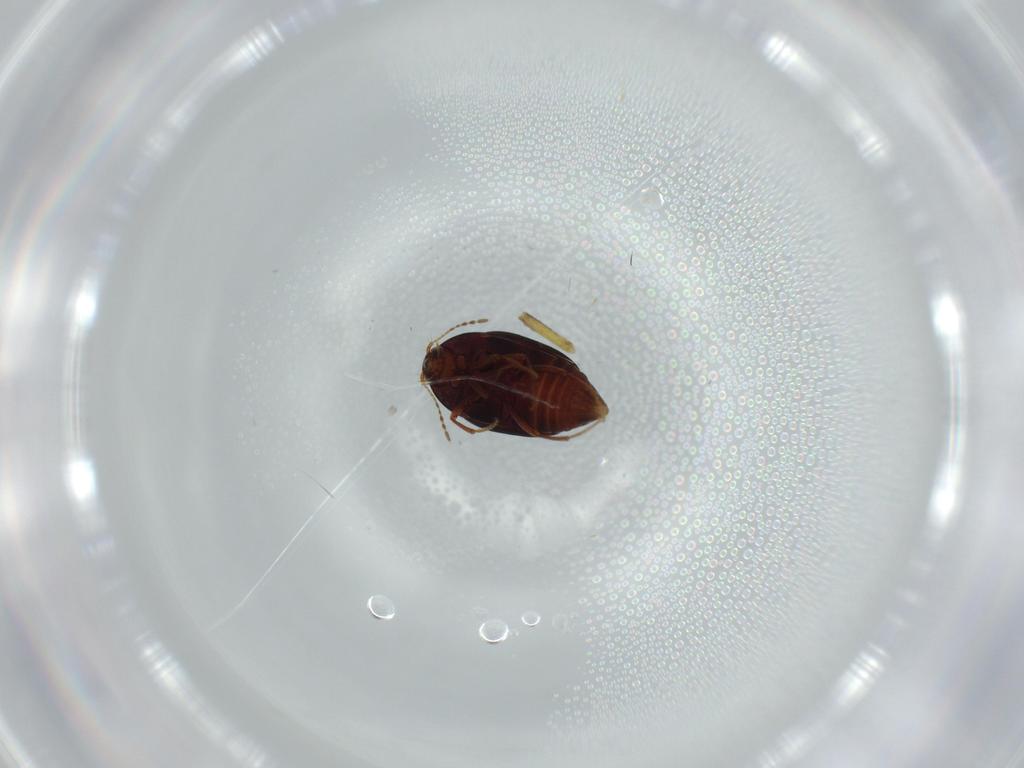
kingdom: Animalia
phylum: Arthropoda
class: Insecta
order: Coleoptera
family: Staphylinidae
